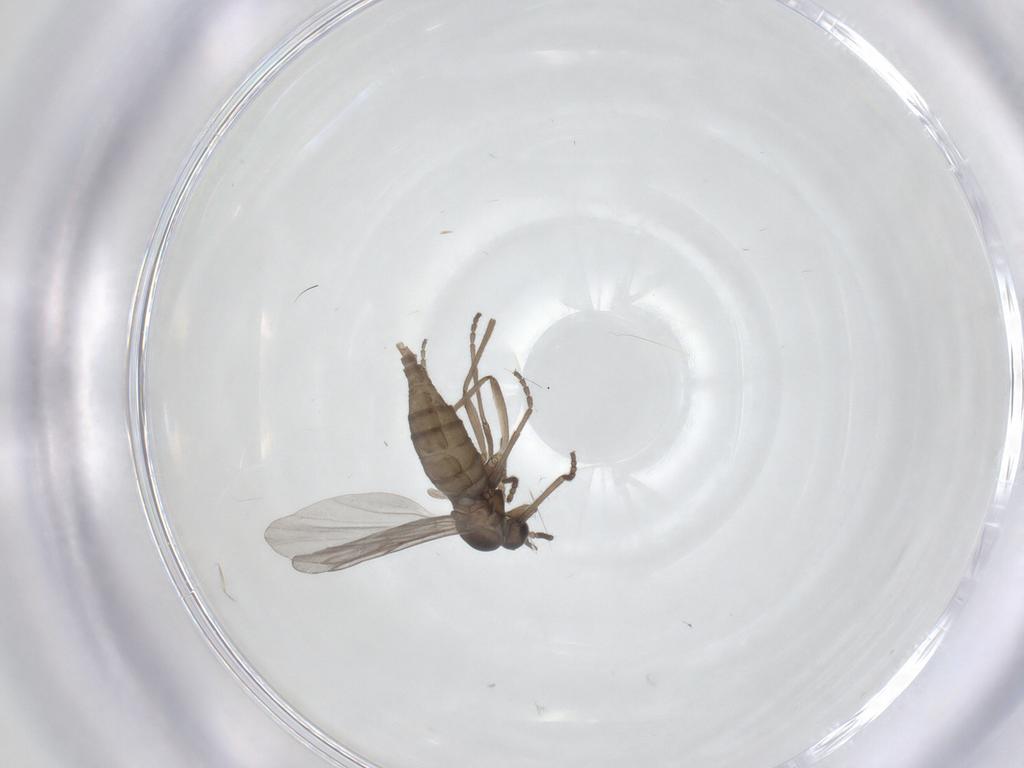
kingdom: Animalia
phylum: Arthropoda
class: Insecta
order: Diptera
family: Cecidomyiidae
